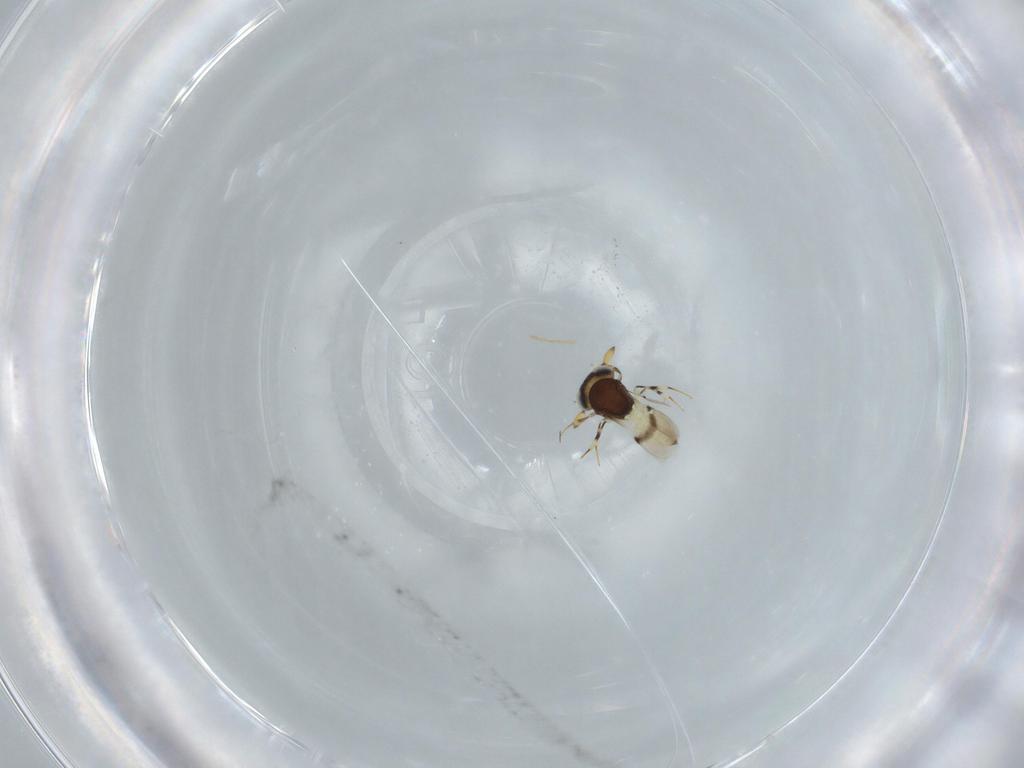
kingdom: Animalia
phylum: Arthropoda
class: Insecta
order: Hymenoptera
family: Scelionidae
